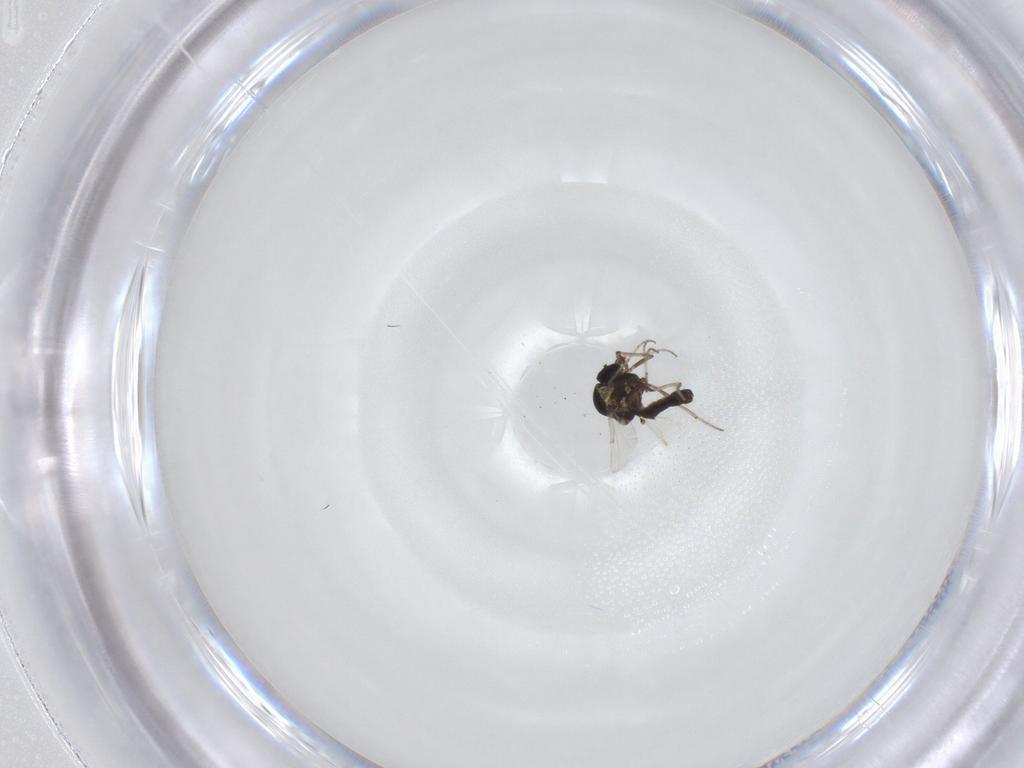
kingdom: Animalia
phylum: Arthropoda
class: Insecta
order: Diptera
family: Ceratopogonidae
